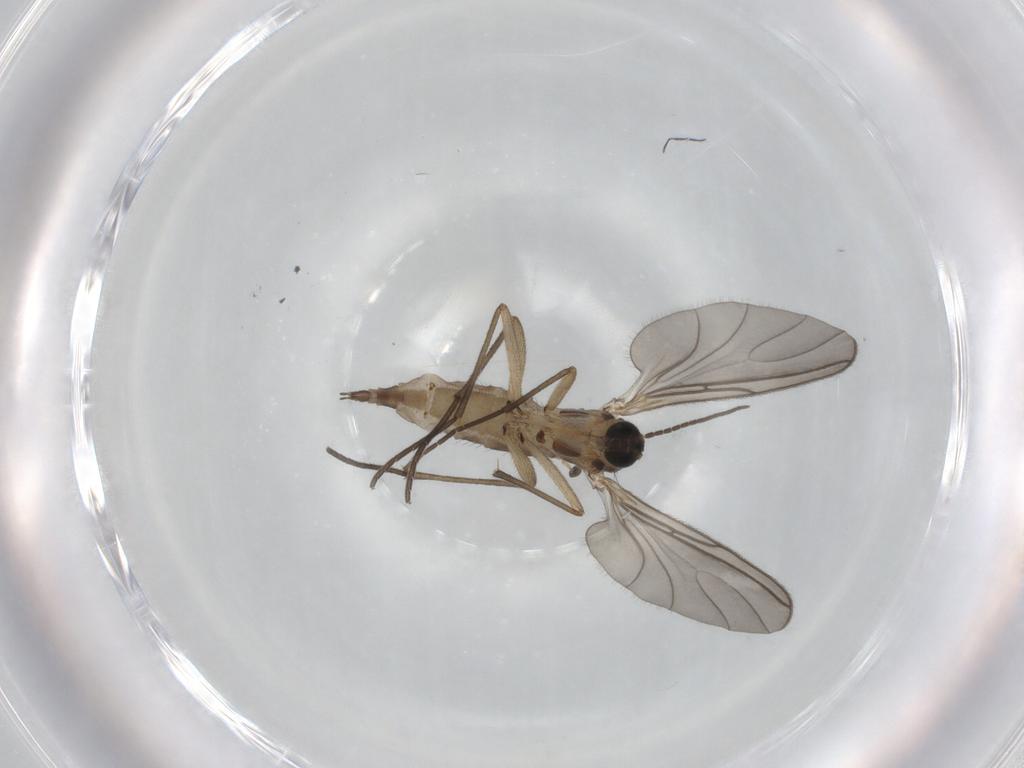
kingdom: Animalia
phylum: Arthropoda
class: Insecta
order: Diptera
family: Sciaridae
